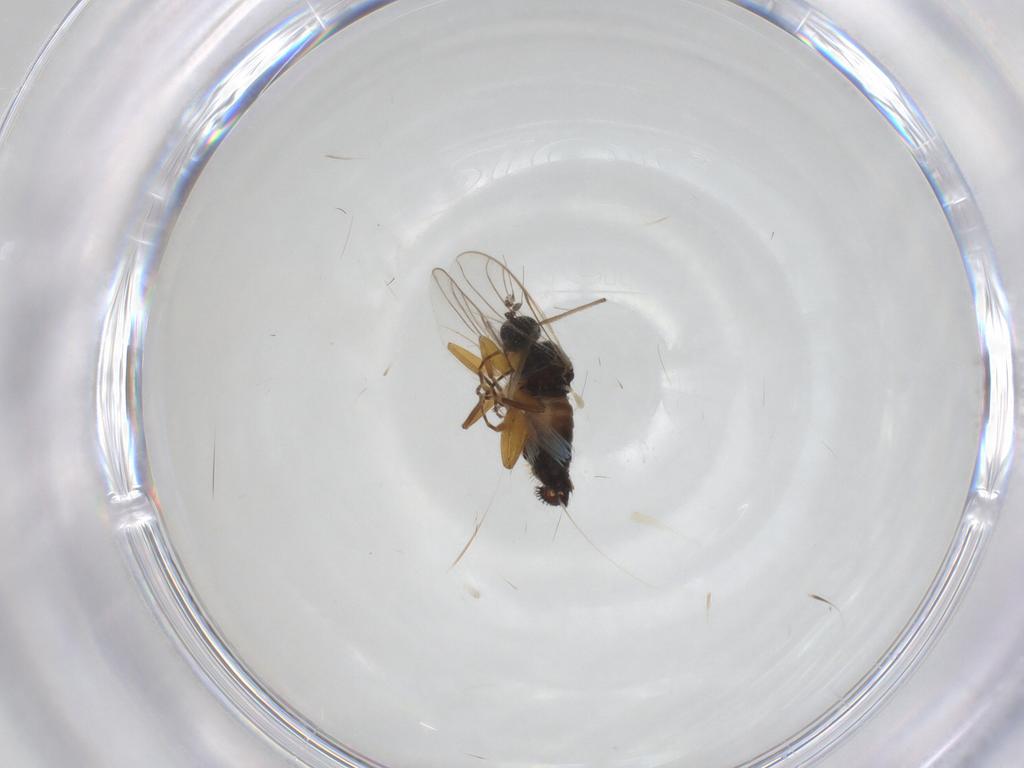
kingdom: Animalia
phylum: Arthropoda
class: Insecta
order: Diptera
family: Hybotidae
